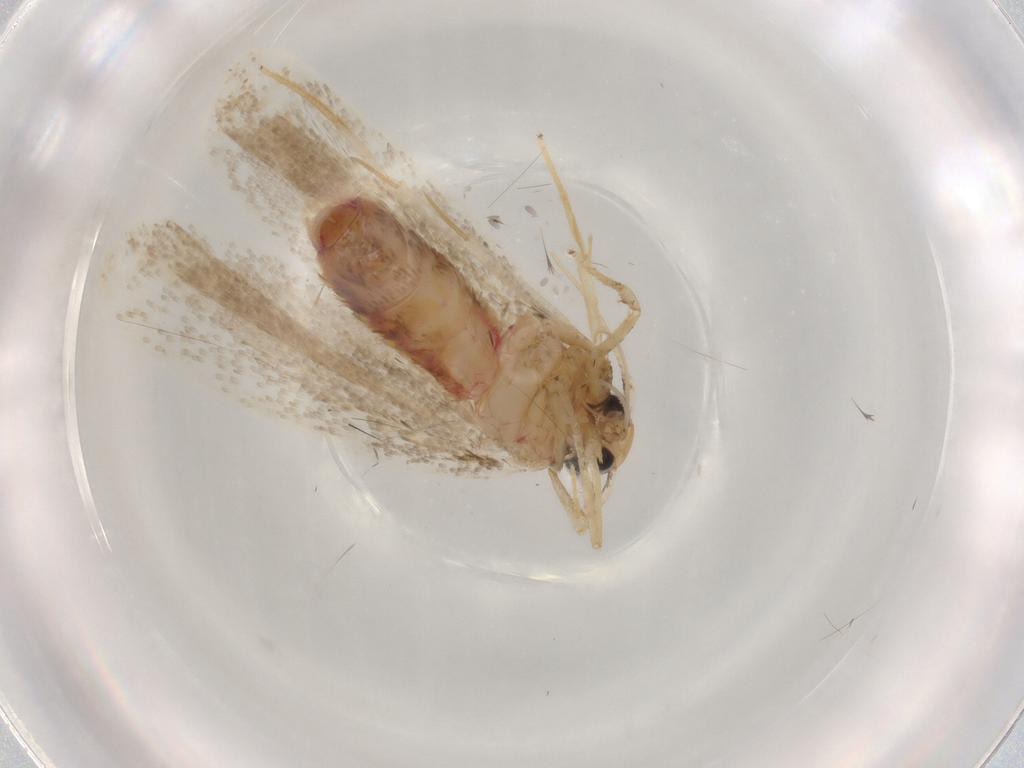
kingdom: Animalia
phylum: Arthropoda
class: Insecta
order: Lepidoptera
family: Lecithoceridae
